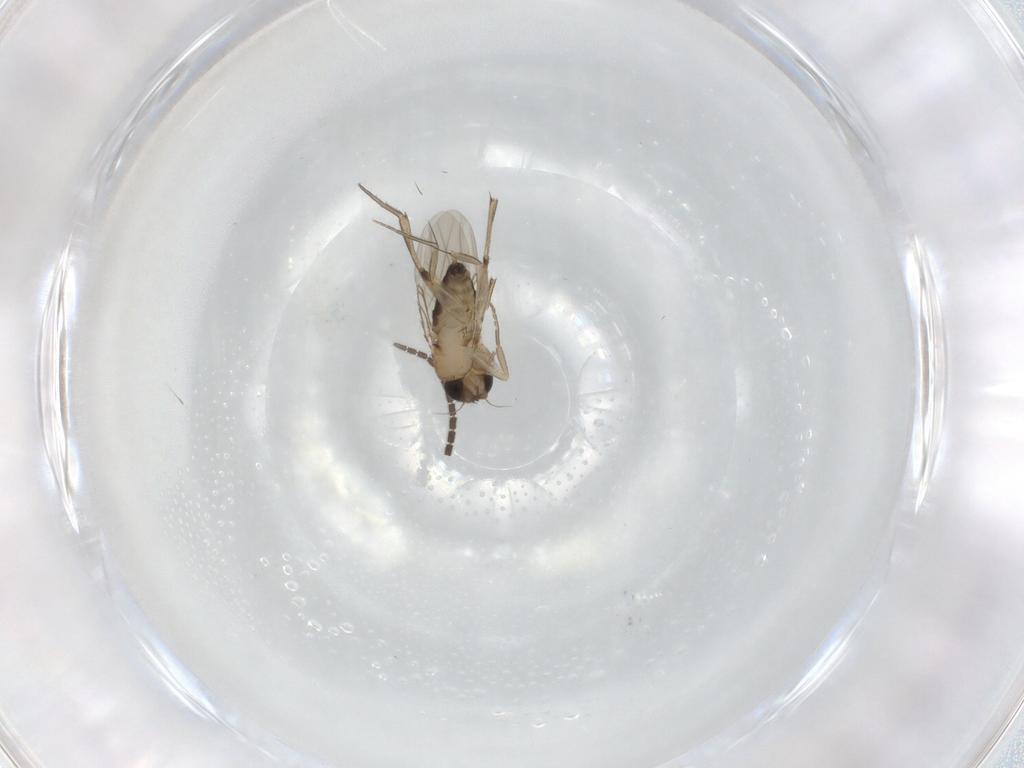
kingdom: Animalia
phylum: Arthropoda
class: Insecta
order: Diptera
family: Phoridae
